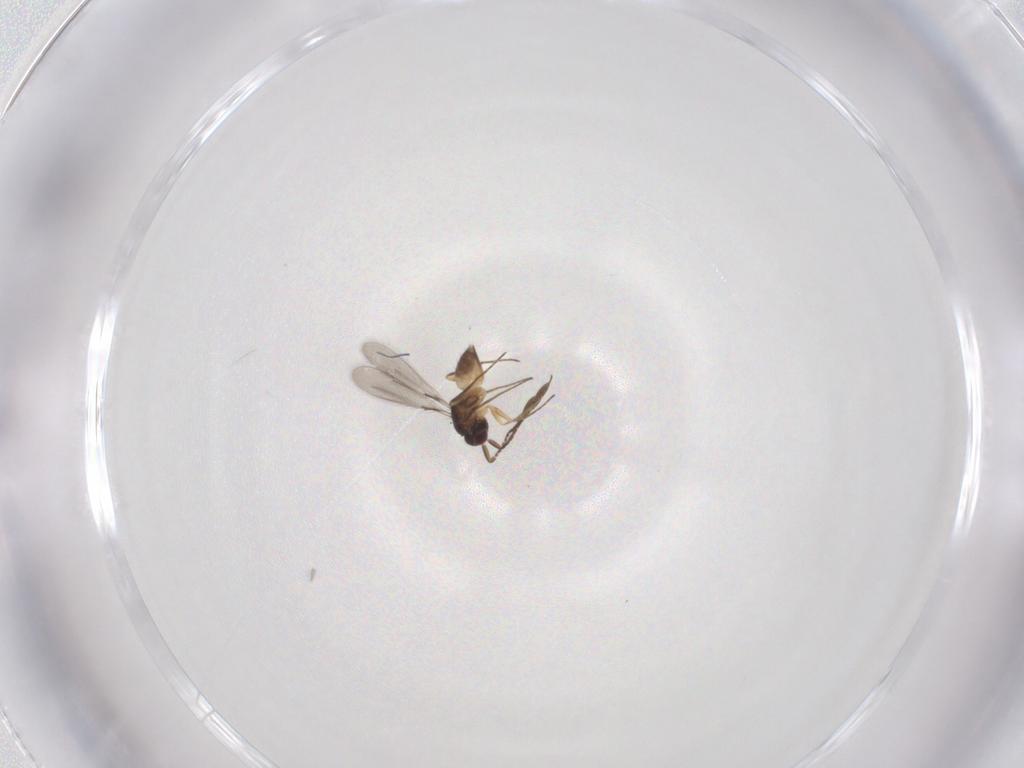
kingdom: Animalia
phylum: Arthropoda
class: Insecta
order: Hymenoptera
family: Mymaridae
